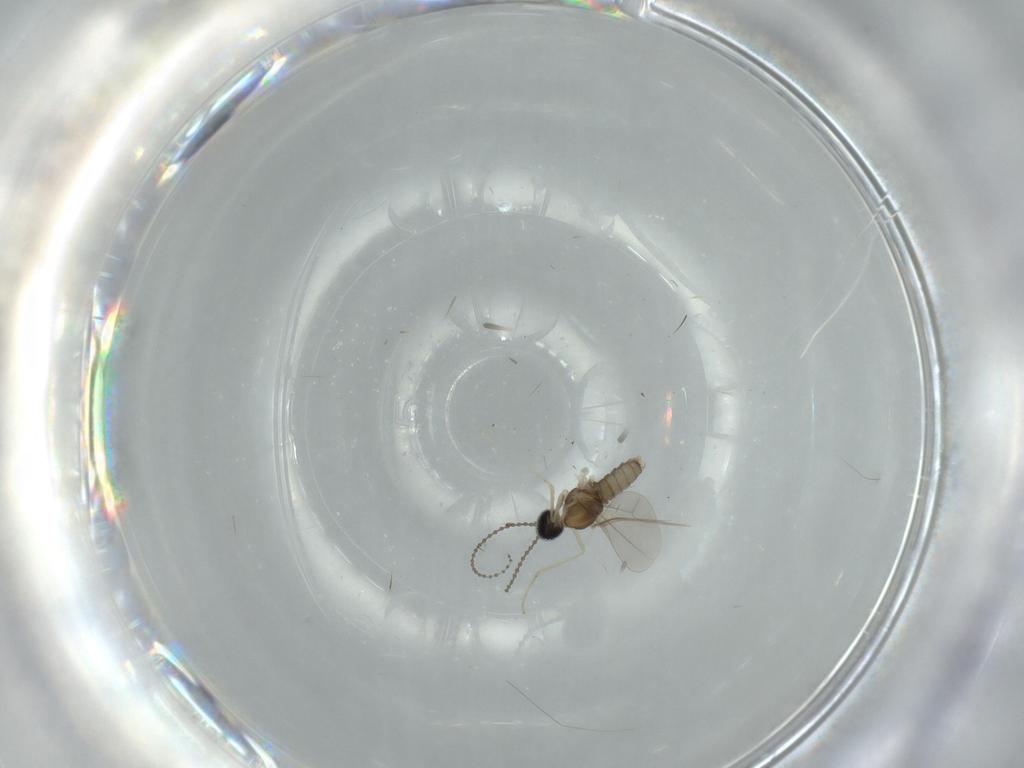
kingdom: Animalia
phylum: Arthropoda
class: Insecta
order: Diptera
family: Cecidomyiidae
